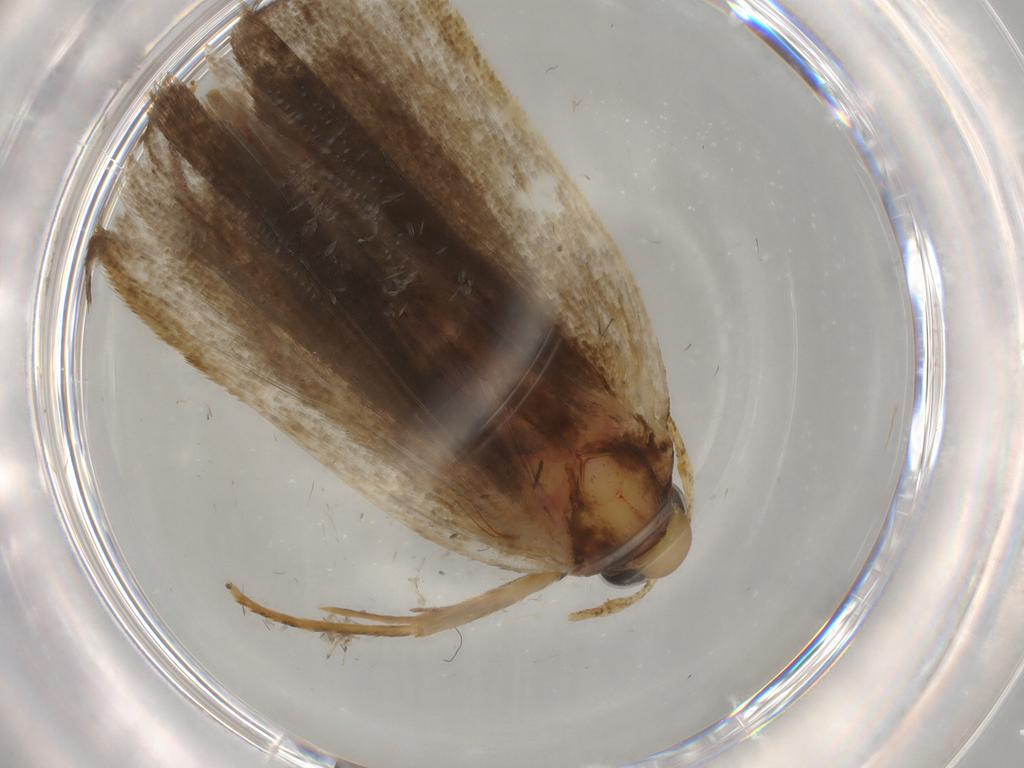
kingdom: Animalia
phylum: Arthropoda
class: Insecta
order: Lepidoptera
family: Autostichidae
